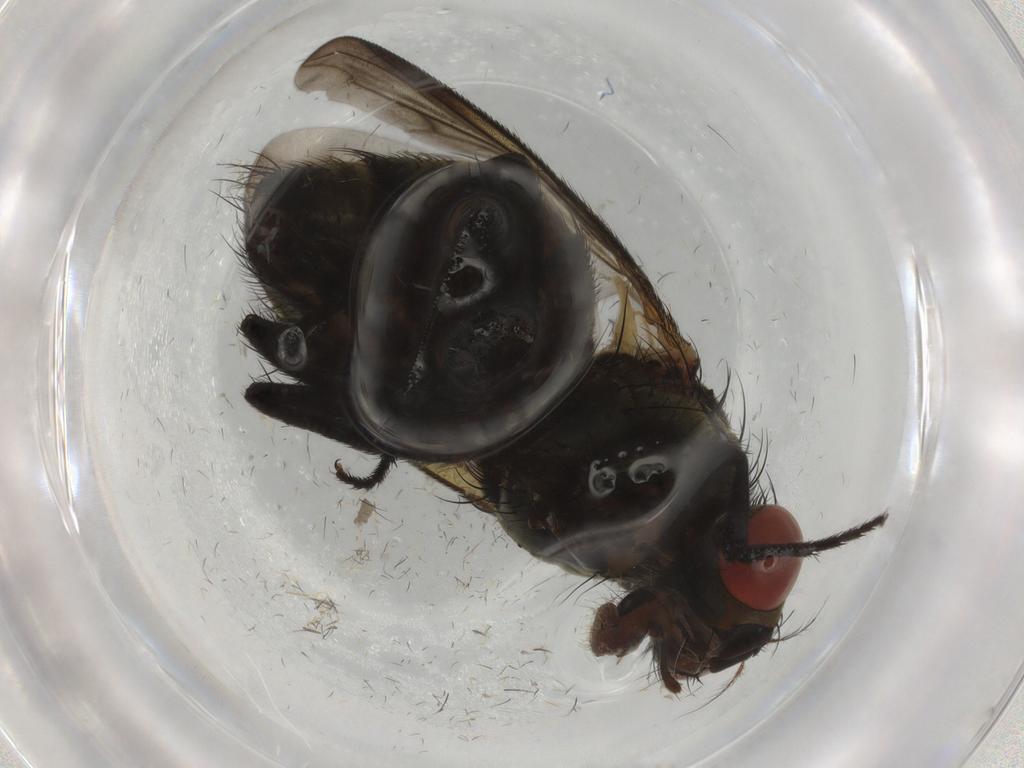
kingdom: Animalia
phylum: Arthropoda
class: Insecta
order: Diptera
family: Sarcophagidae
